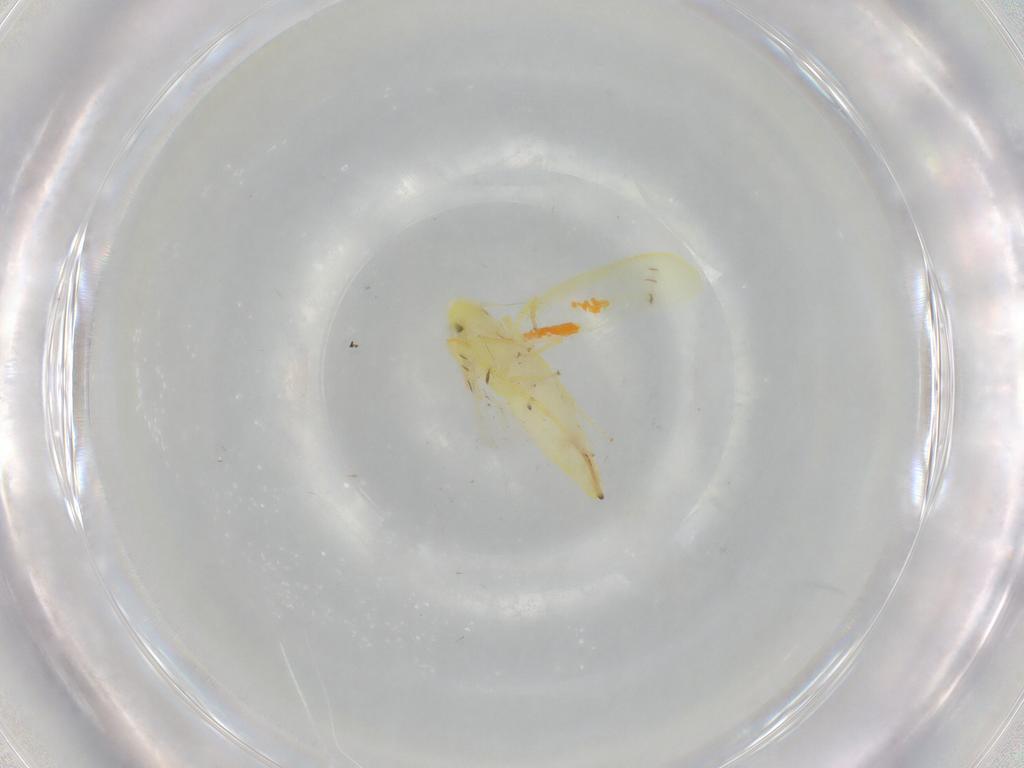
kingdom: Animalia
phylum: Arthropoda
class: Insecta
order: Hemiptera
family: Cicadellidae
